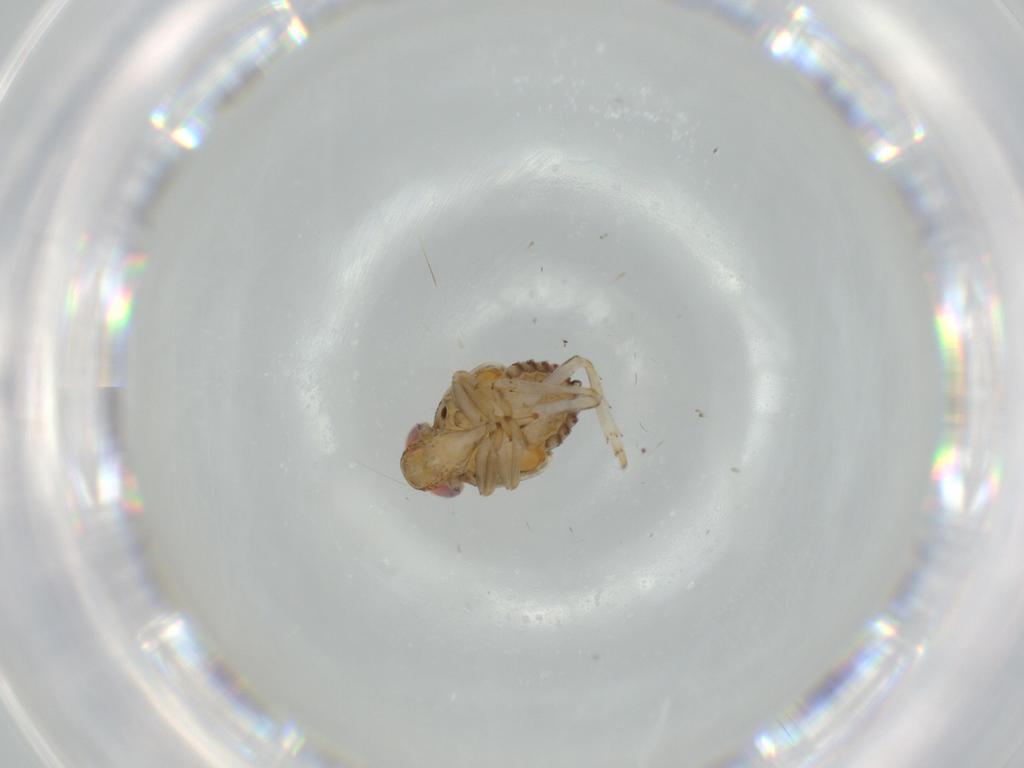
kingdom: Animalia
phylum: Arthropoda
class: Insecta
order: Hemiptera
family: Issidae
